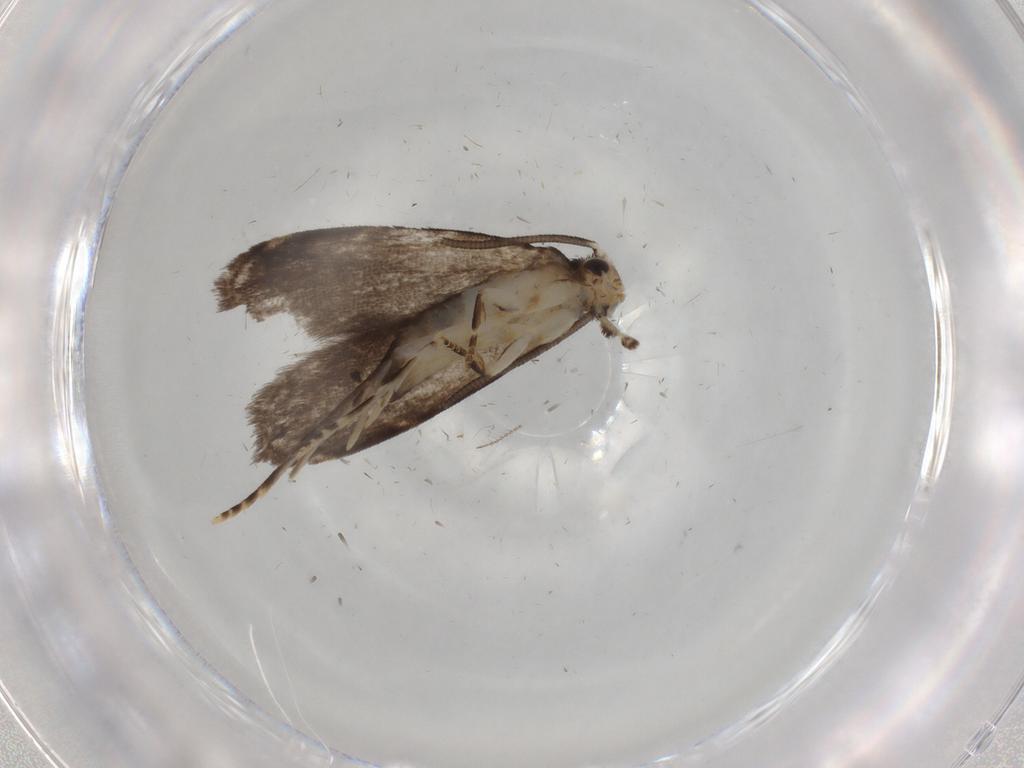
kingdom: Animalia
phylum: Arthropoda
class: Insecta
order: Lepidoptera
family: Dryadaulidae
